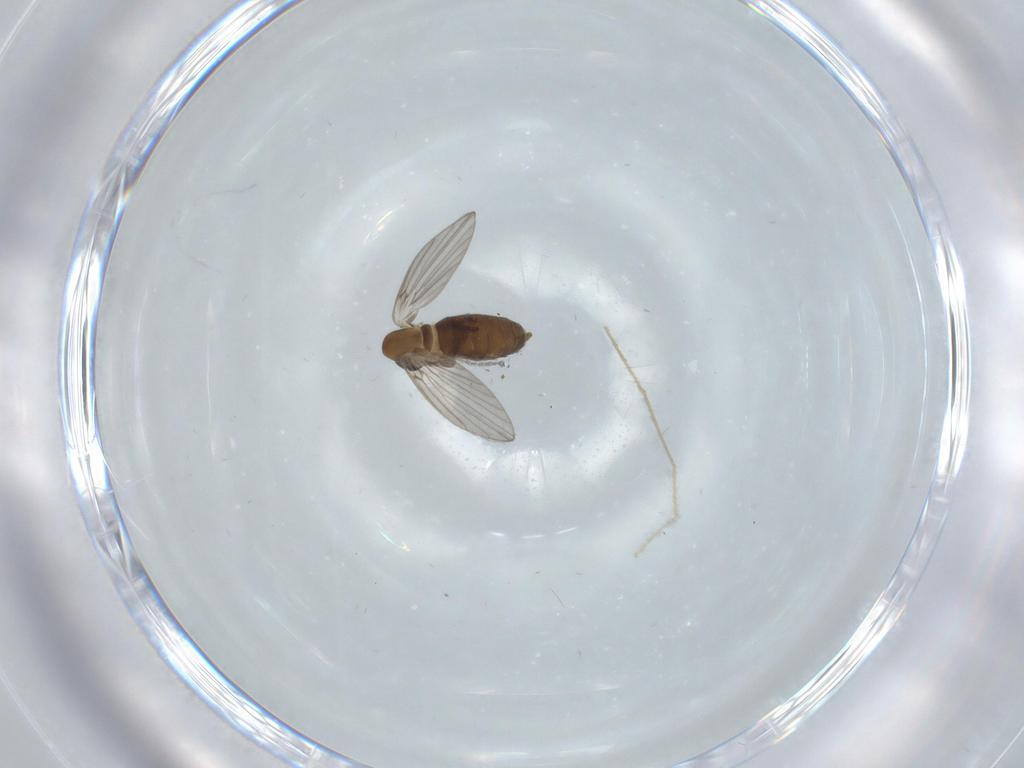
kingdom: Animalia
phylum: Arthropoda
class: Insecta
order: Diptera
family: Chironomidae
